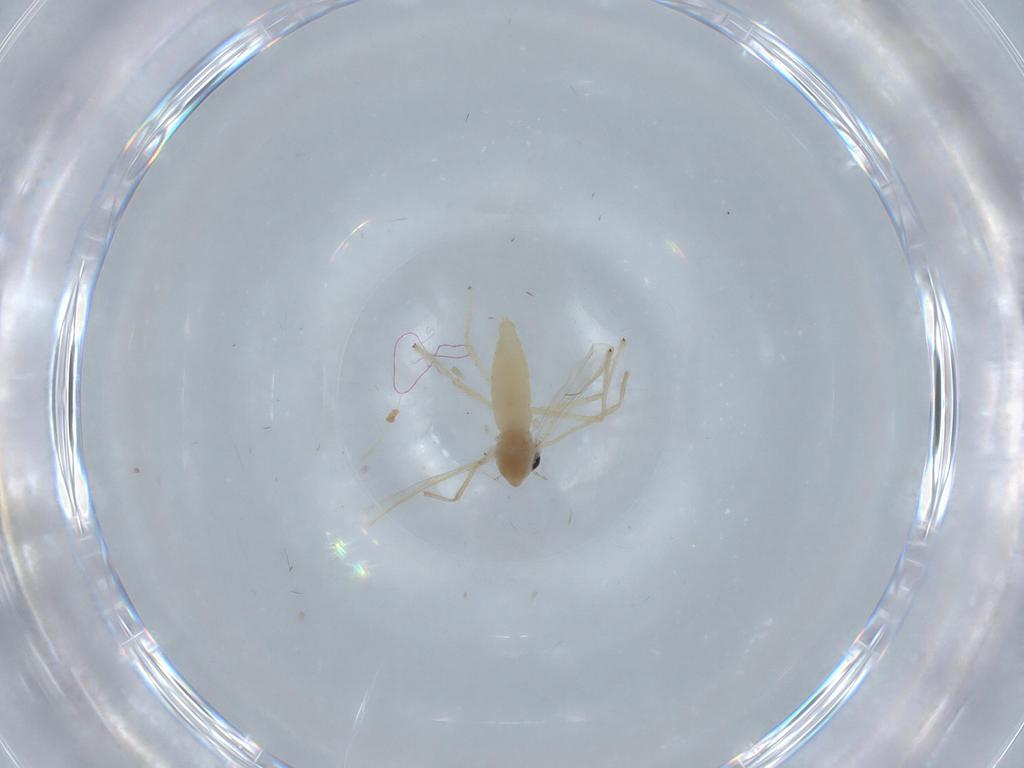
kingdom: Animalia
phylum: Arthropoda
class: Insecta
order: Diptera
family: Chironomidae
